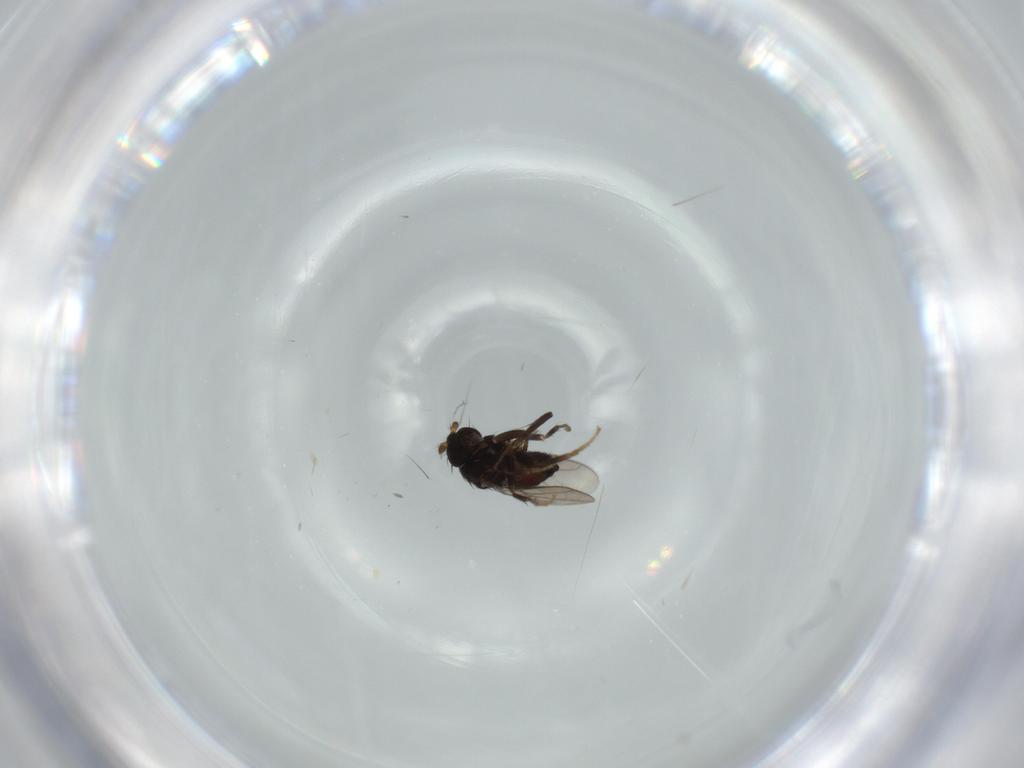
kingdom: Animalia
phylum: Arthropoda
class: Insecta
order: Diptera
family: Sphaeroceridae
